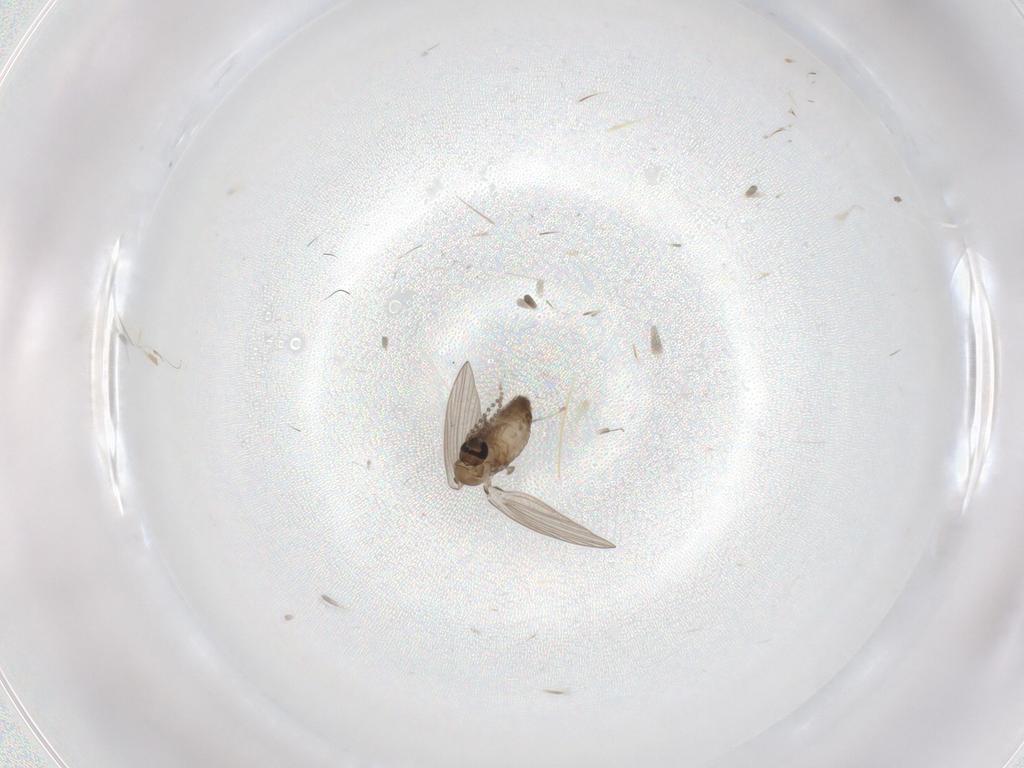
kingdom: Animalia
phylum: Arthropoda
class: Insecta
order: Diptera
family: Psychodidae
